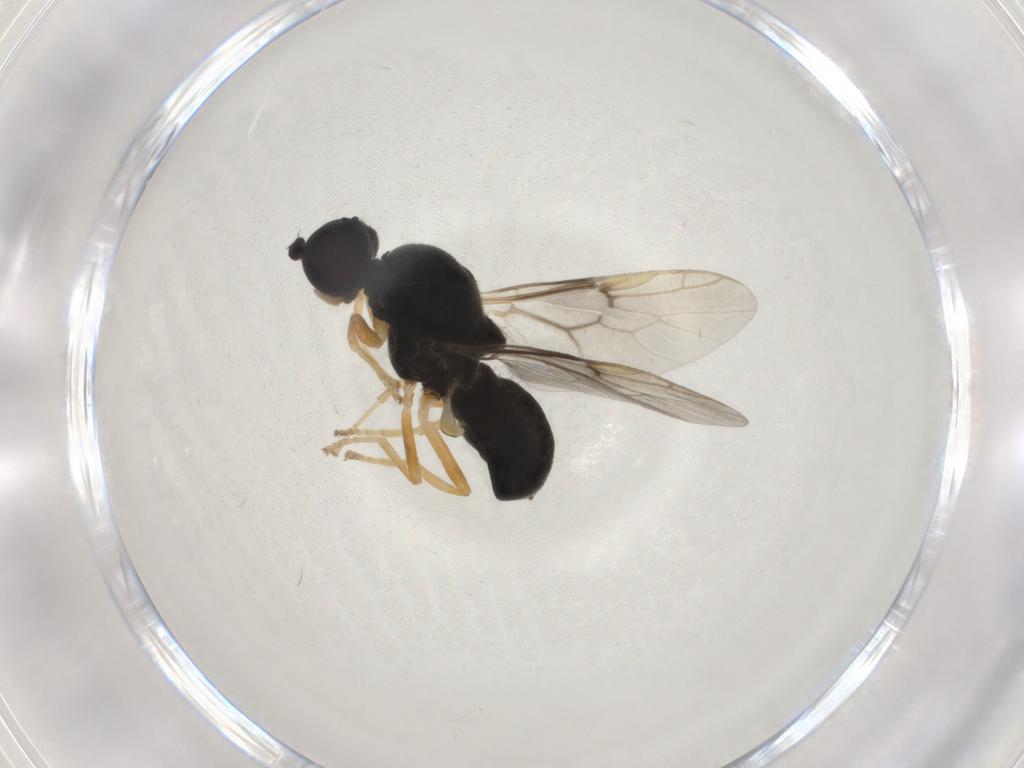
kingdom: Animalia
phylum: Arthropoda
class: Insecta
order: Diptera
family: Stratiomyidae
